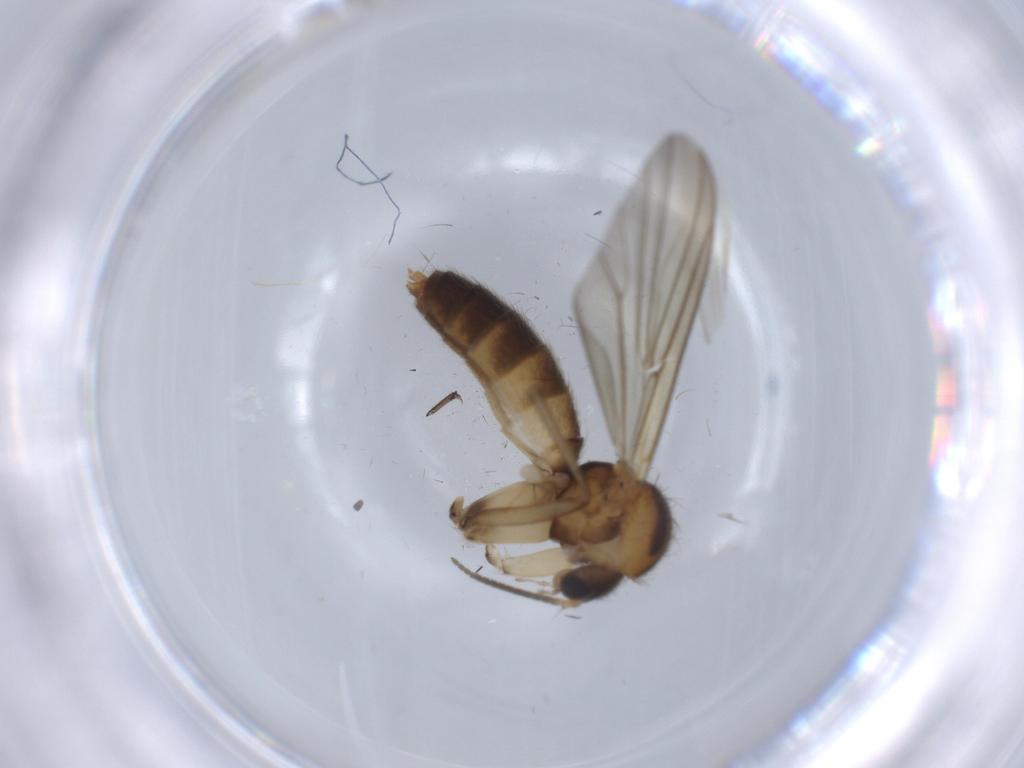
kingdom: Animalia
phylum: Arthropoda
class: Insecta
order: Diptera
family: Mycetophilidae
